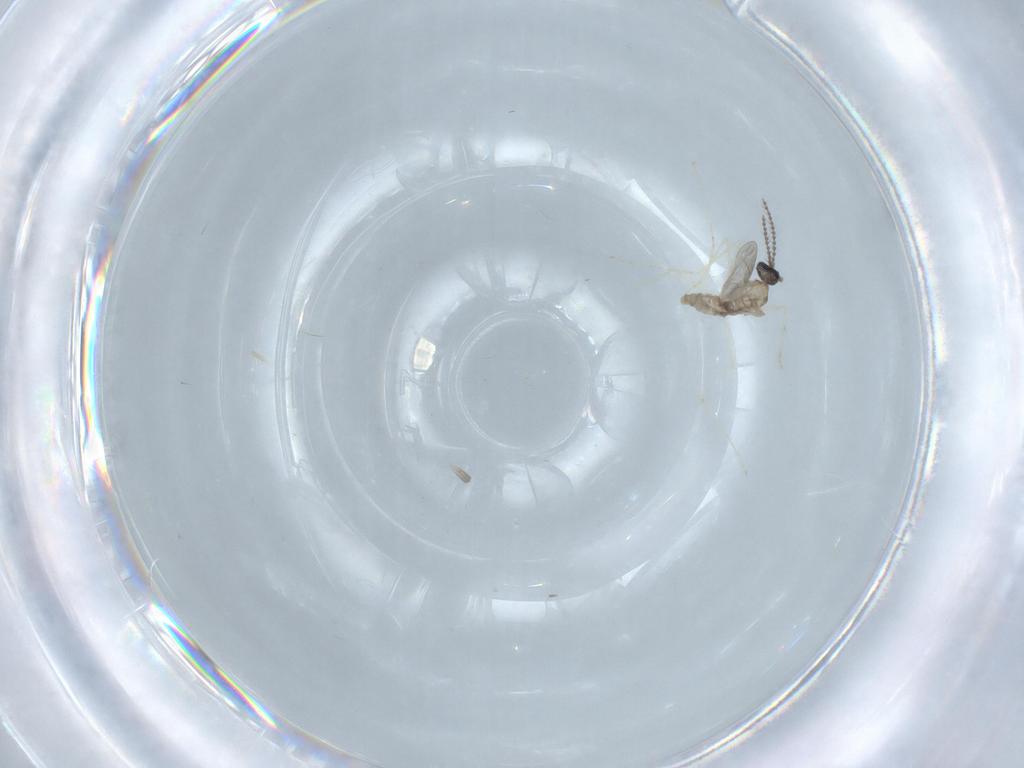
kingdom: Animalia
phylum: Arthropoda
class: Insecta
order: Diptera
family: Cecidomyiidae
